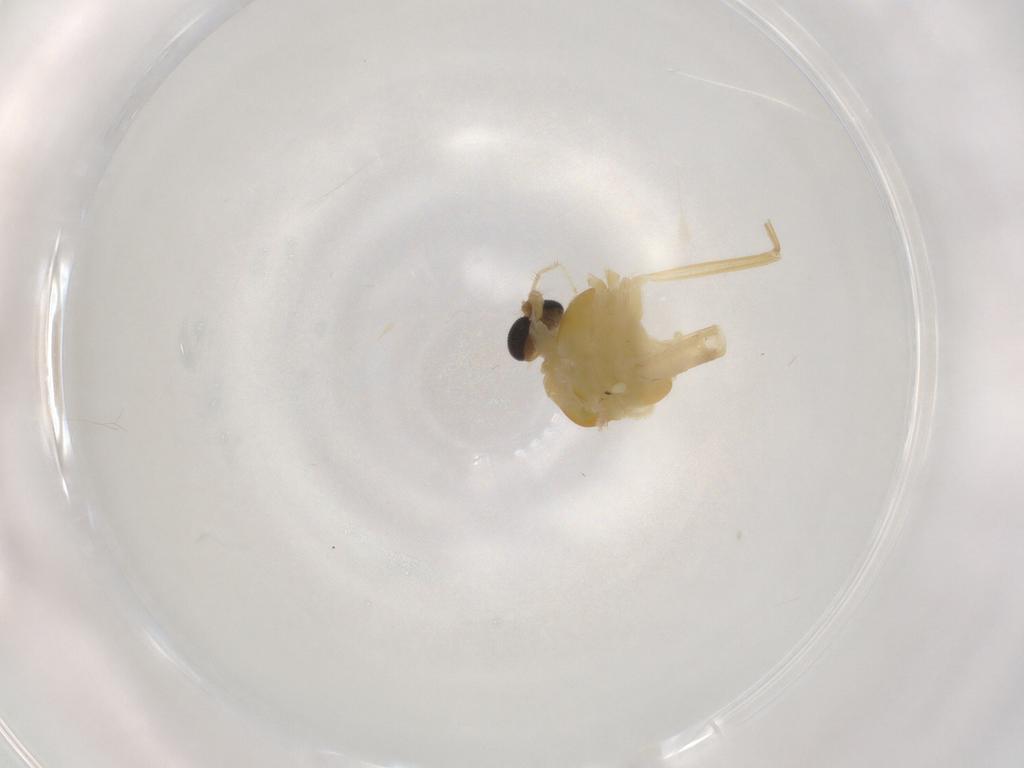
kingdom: Animalia
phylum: Arthropoda
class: Insecta
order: Diptera
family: Chironomidae
